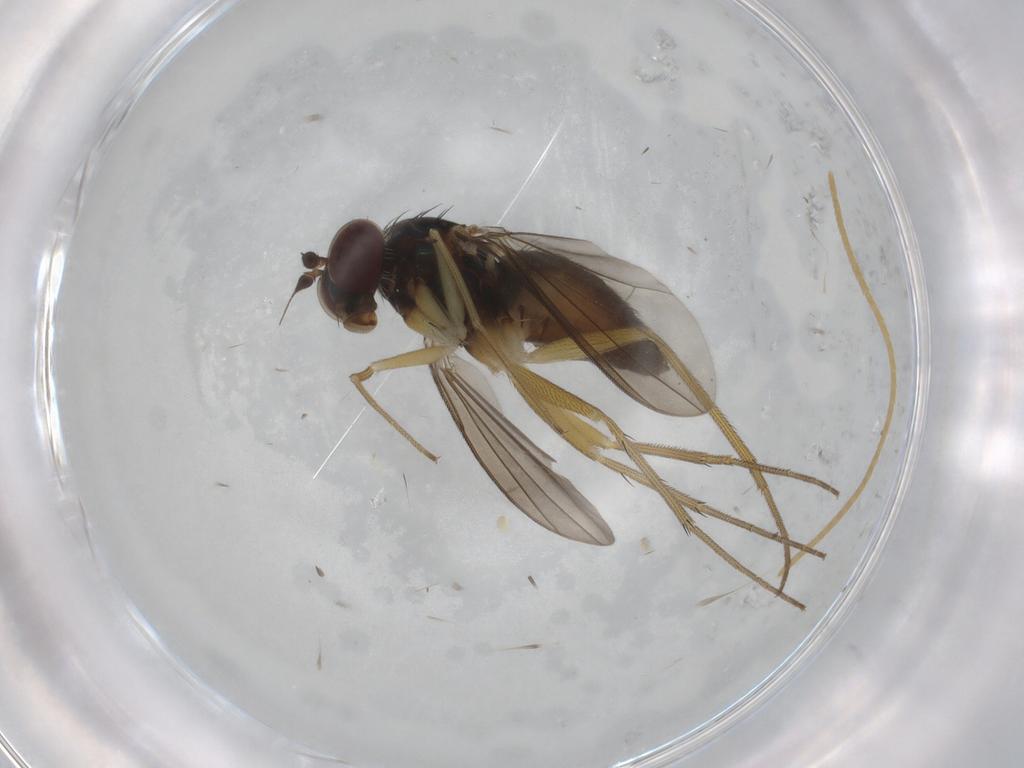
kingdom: Animalia
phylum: Arthropoda
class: Insecta
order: Diptera
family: Dolichopodidae
